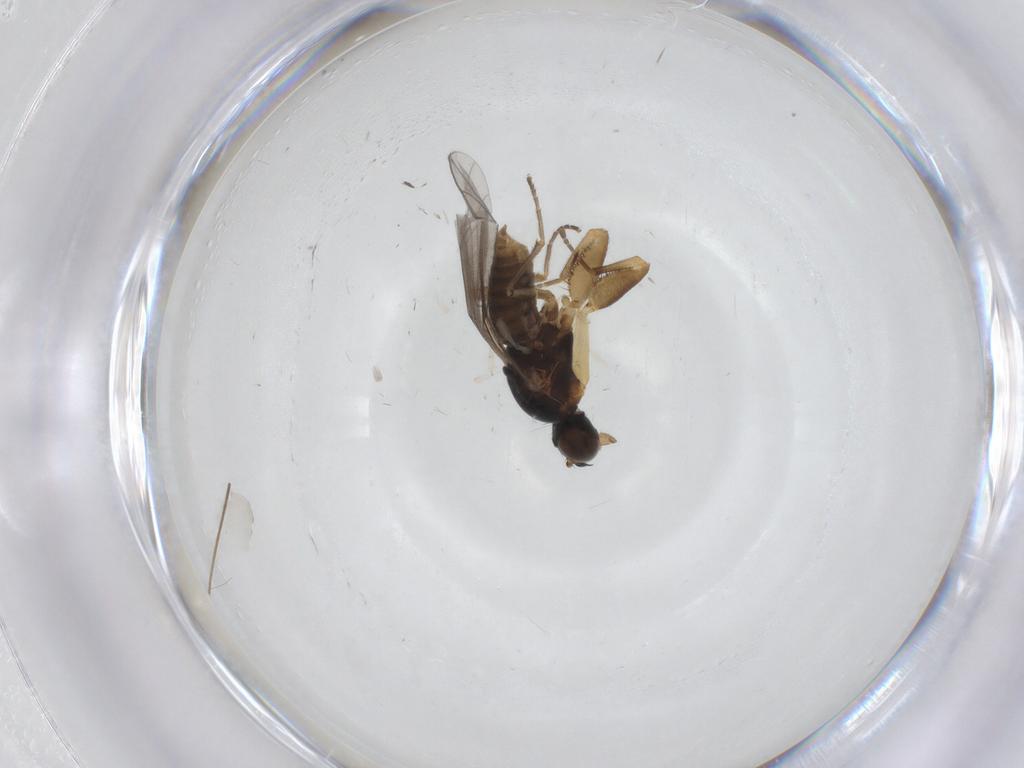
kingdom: Animalia
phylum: Arthropoda
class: Insecta
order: Diptera
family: Empididae
